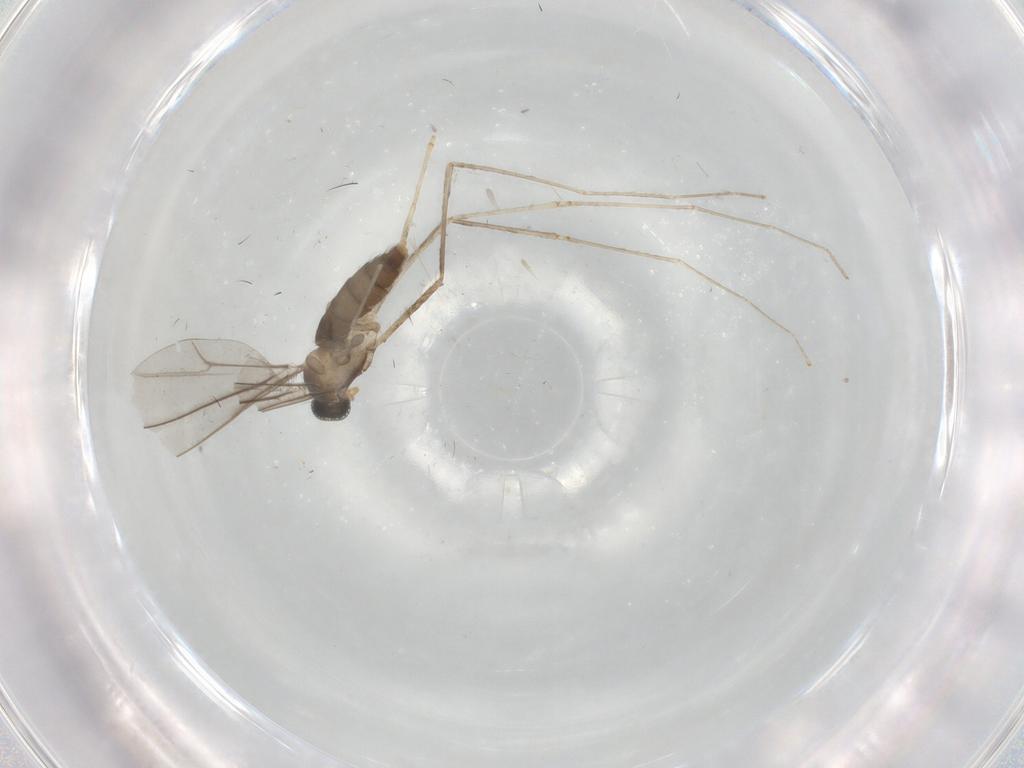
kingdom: Animalia
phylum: Arthropoda
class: Insecta
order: Diptera
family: Cecidomyiidae
